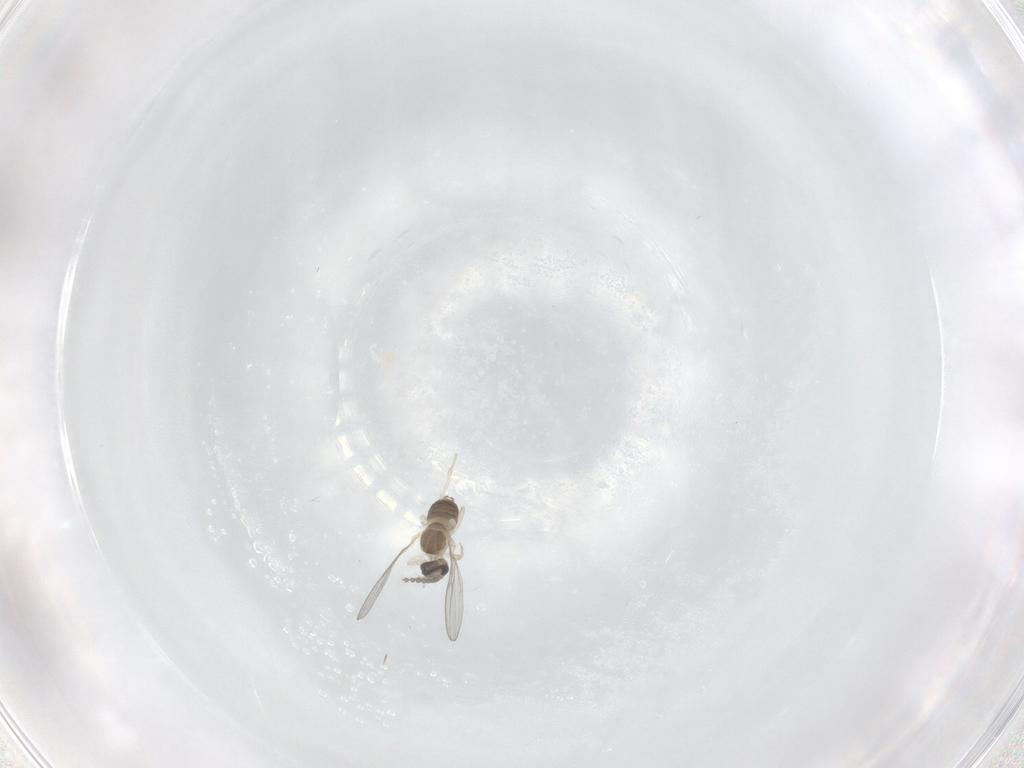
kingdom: Animalia
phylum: Arthropoda
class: Insecta
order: Diptera
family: Cecidomyiidae
